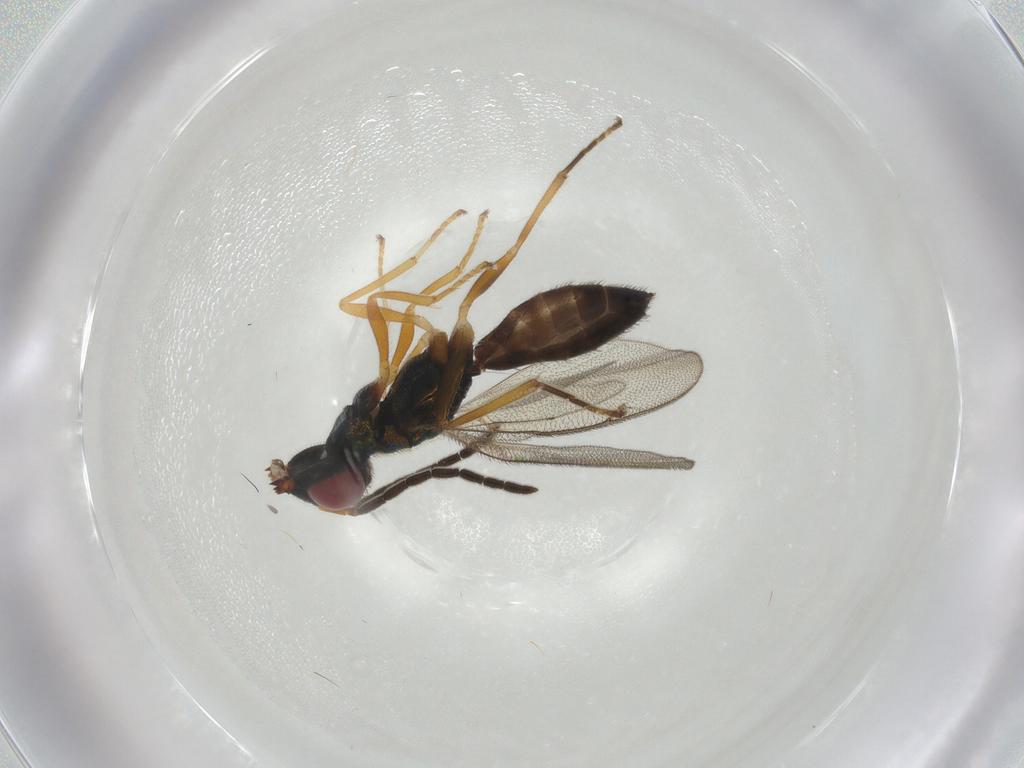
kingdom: Animalia
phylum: Arthropoda
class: Insecta
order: Hymenoptera
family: Pteromalidae
